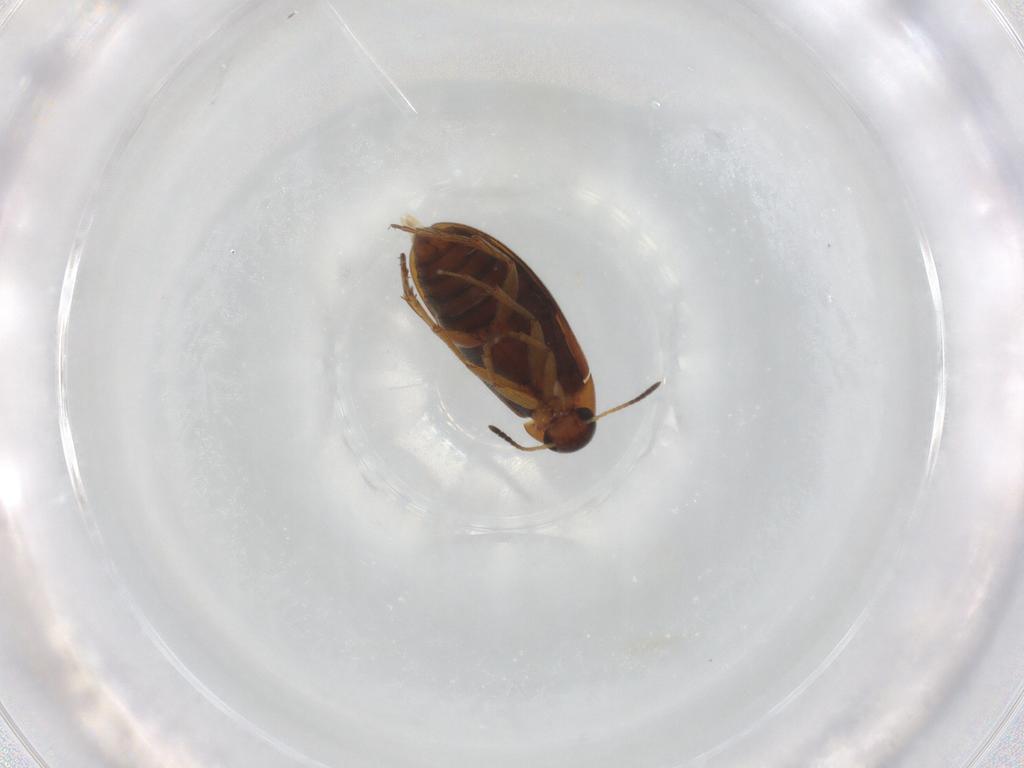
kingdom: Animalia
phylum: Arthropoda
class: Insecta
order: Coleoptera
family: Scraptiidae
